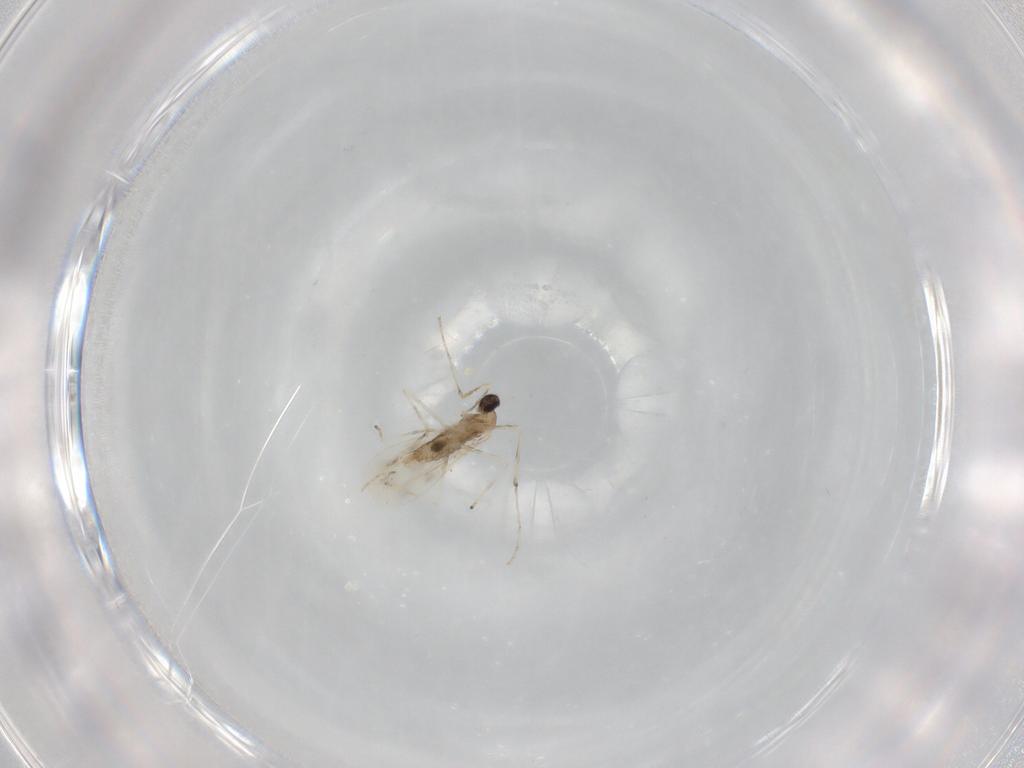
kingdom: Animalia
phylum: Arthropoda
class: Insecta
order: Diptera
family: Cecidomyiidae
